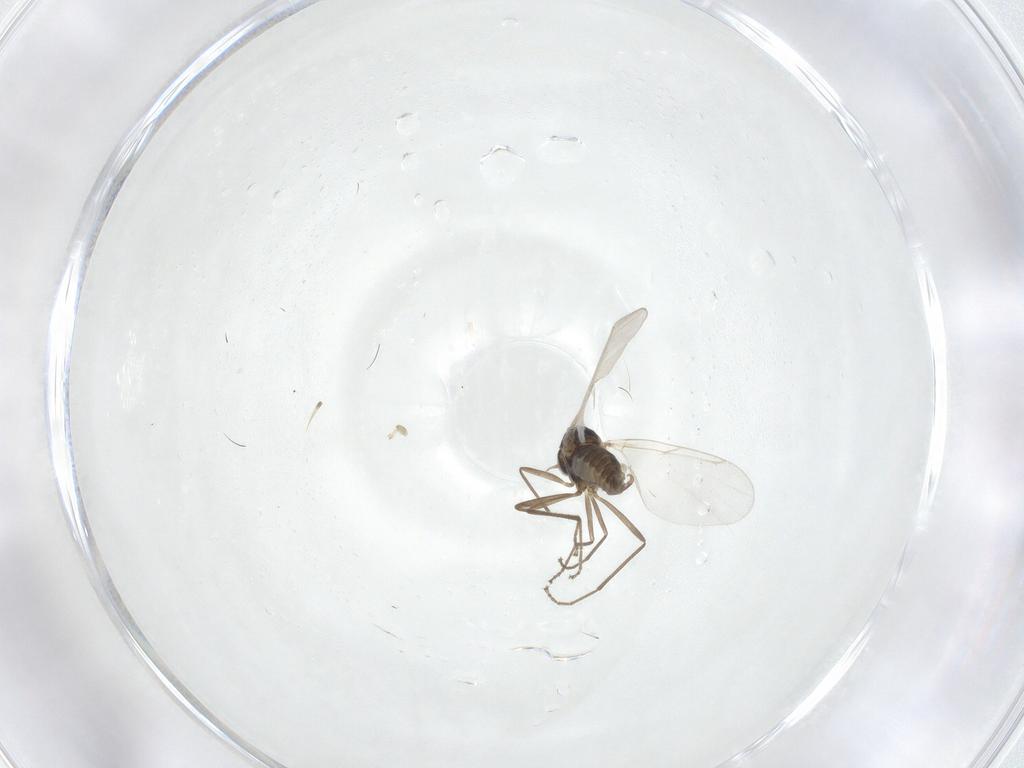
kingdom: Animalia
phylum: Arthropoda
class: Insecta
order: Diptera
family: Cecidomyiidae
